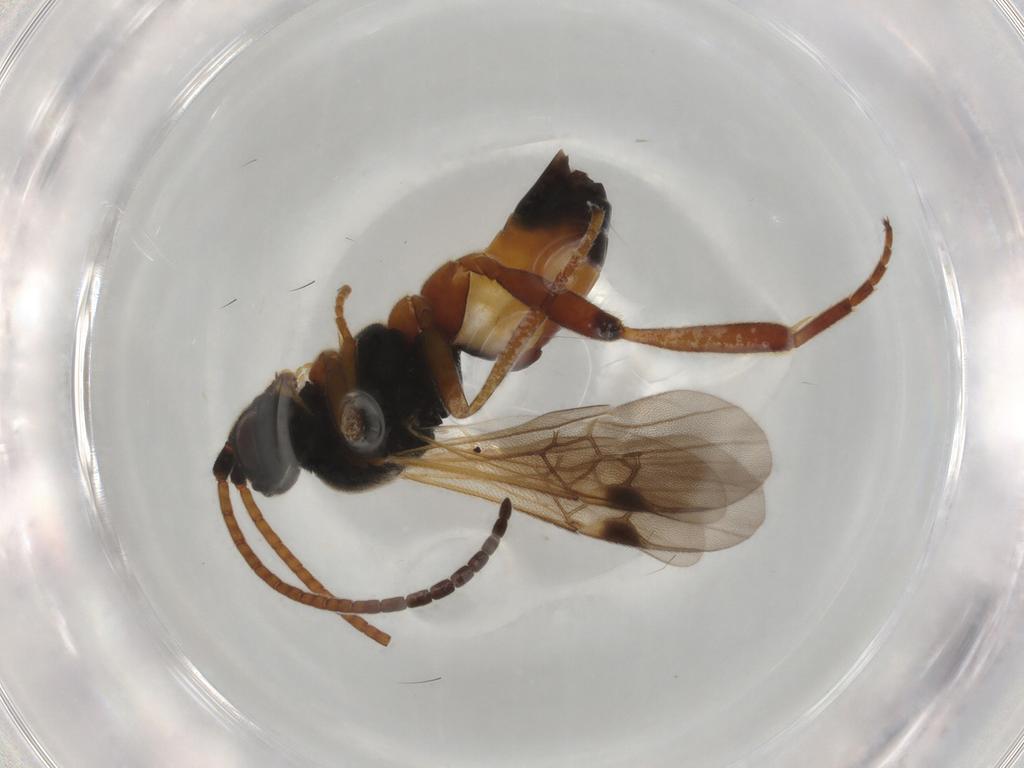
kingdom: Animalia
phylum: Arthropoda
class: Insecta
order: Hymenoptera
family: Braconidae
